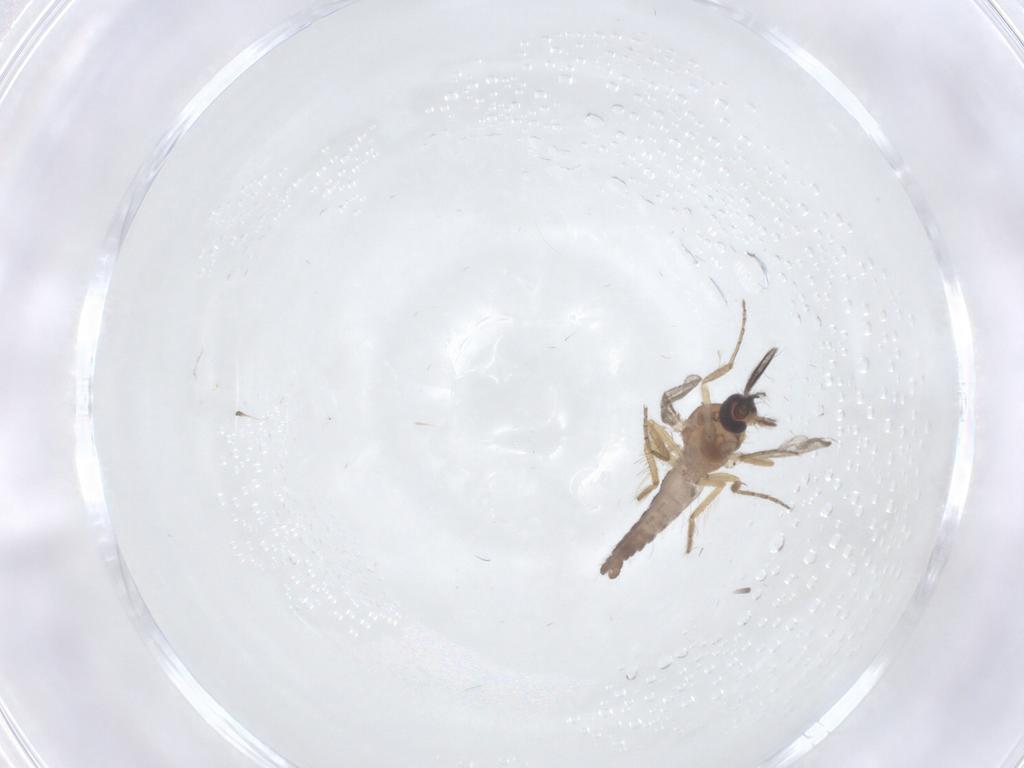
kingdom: Animalia
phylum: Arthropoda
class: Insecta
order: Diptera
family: Ceratopogonidae
